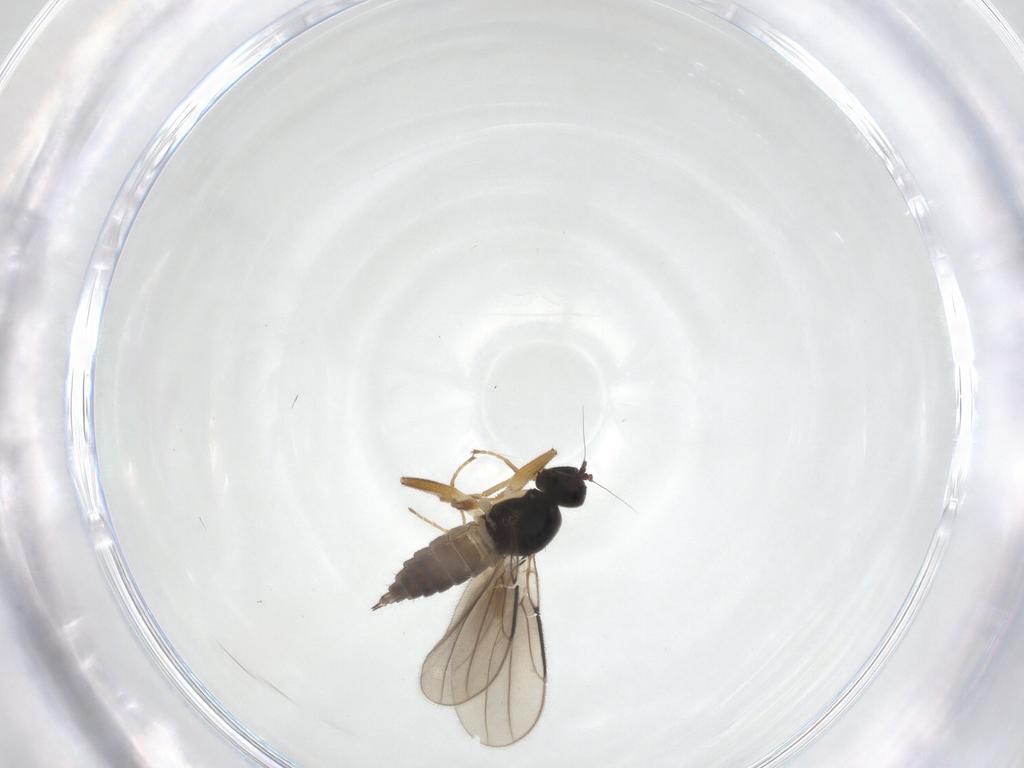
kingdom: Animalia
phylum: Arthropoda
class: Insecta
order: Diptera
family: Hybotidae
